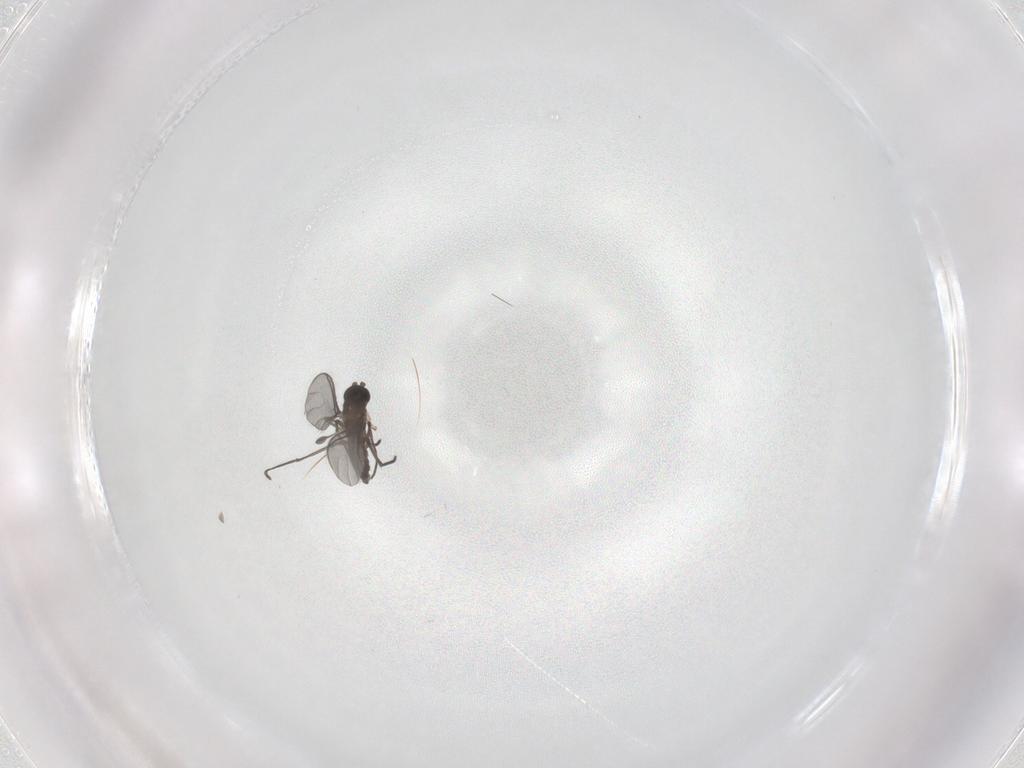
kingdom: Animalia
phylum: Arthropoda
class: Insecta
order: Diptera
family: Sciaridae
